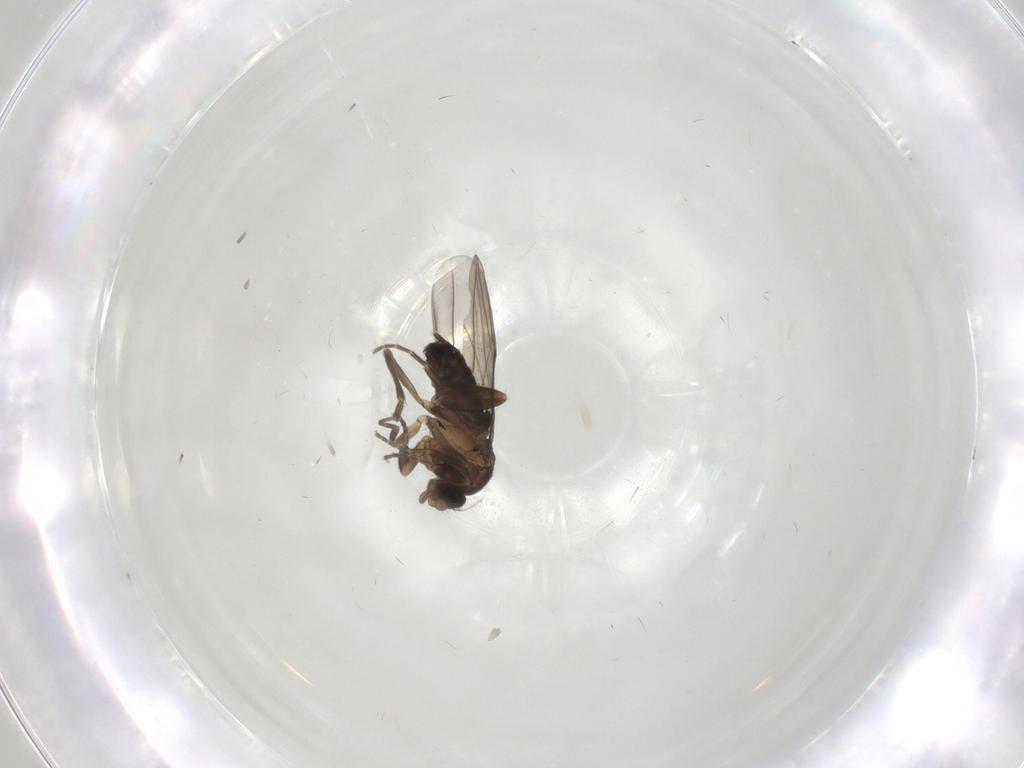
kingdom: Animalia
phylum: Arthropoda
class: Insecta
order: Diptera
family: Phoridae
